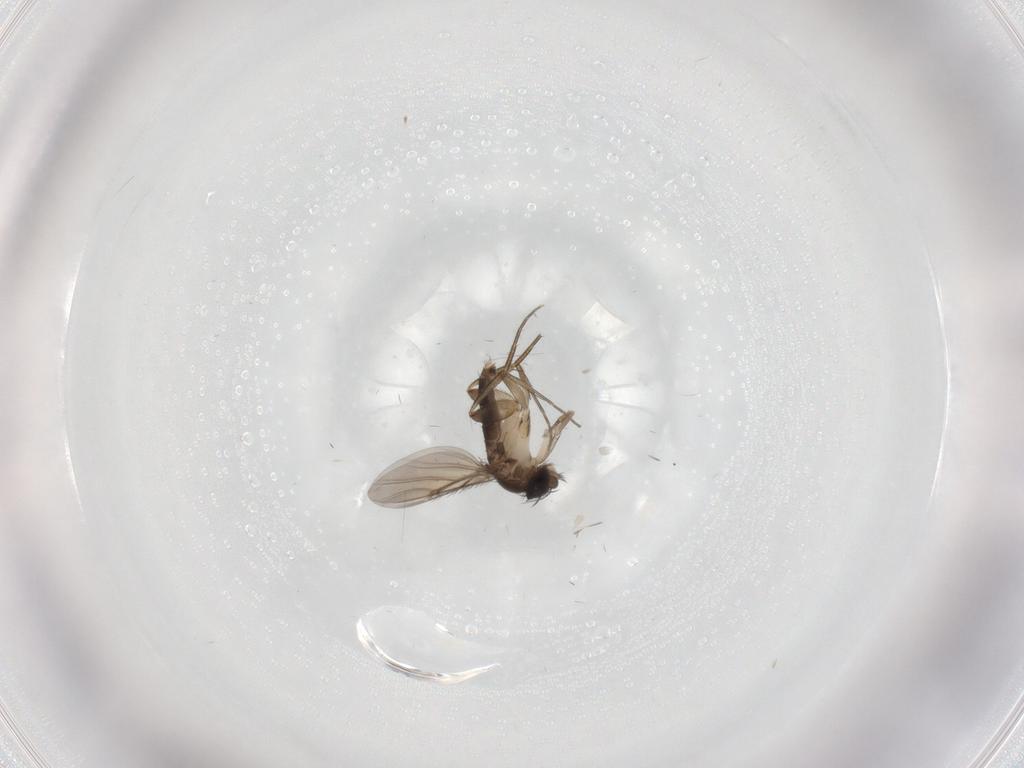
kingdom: Animalia
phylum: Arthropoda
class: Insecta
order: Diptera
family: Phoridae
